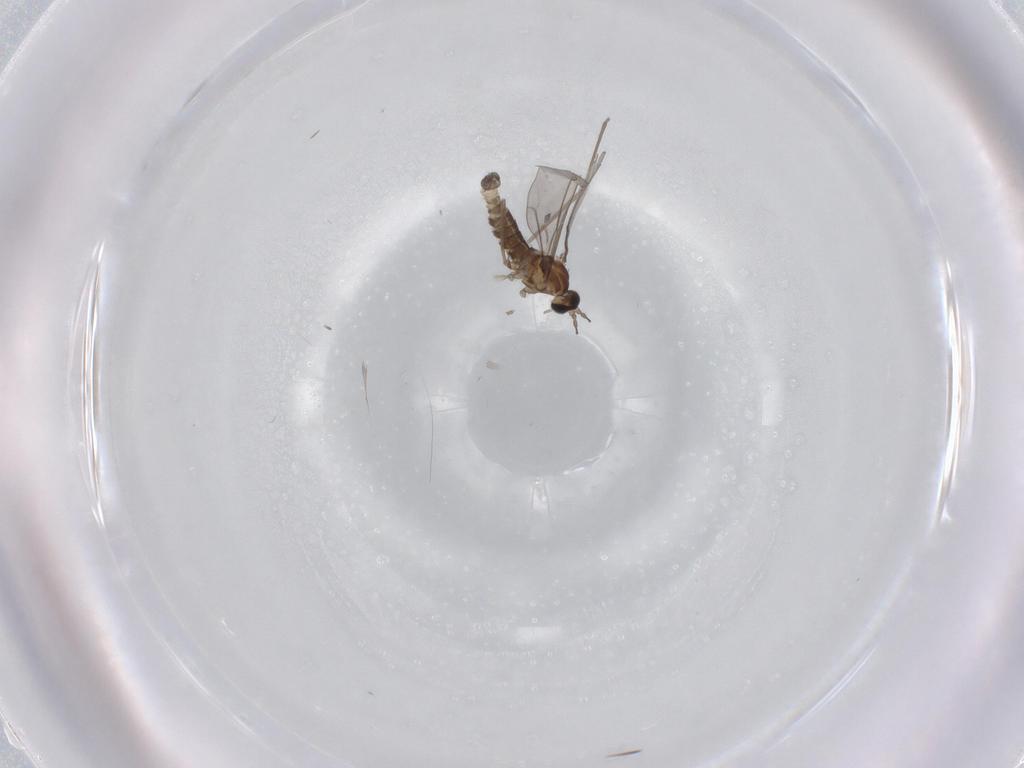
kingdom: Animalia
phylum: Arthropoda
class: Insecta
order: Diptera
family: Cecidomyiidae
